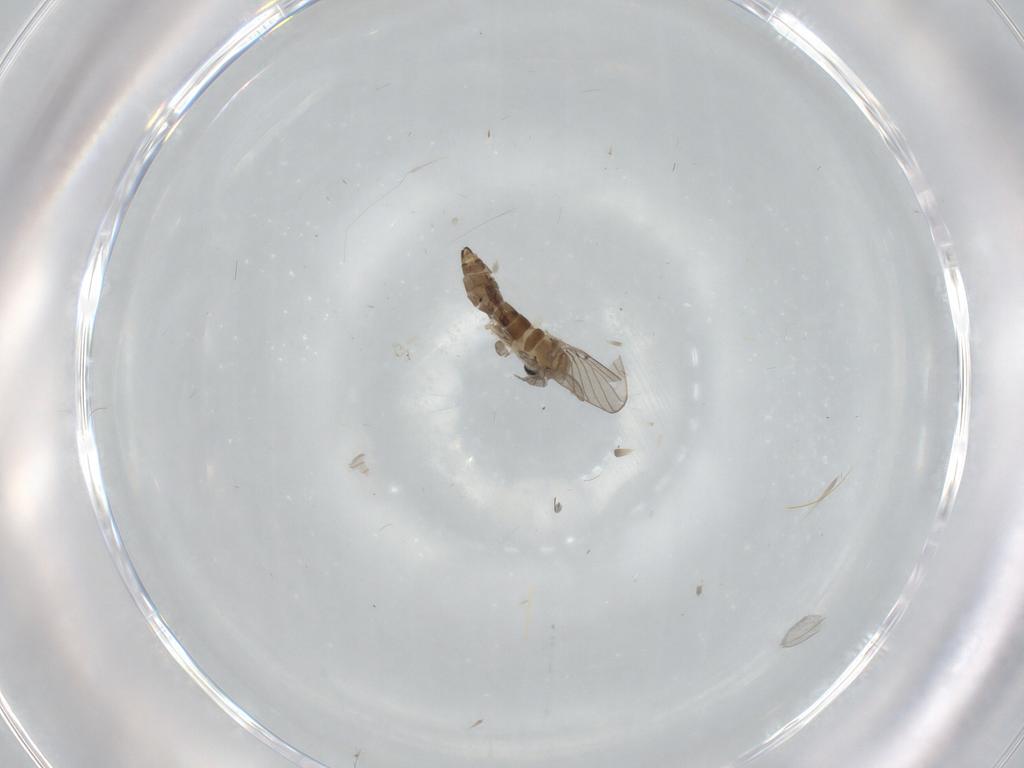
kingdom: Animalia
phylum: Arthropoda
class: Insecta
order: Diptera
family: Psychodidae
